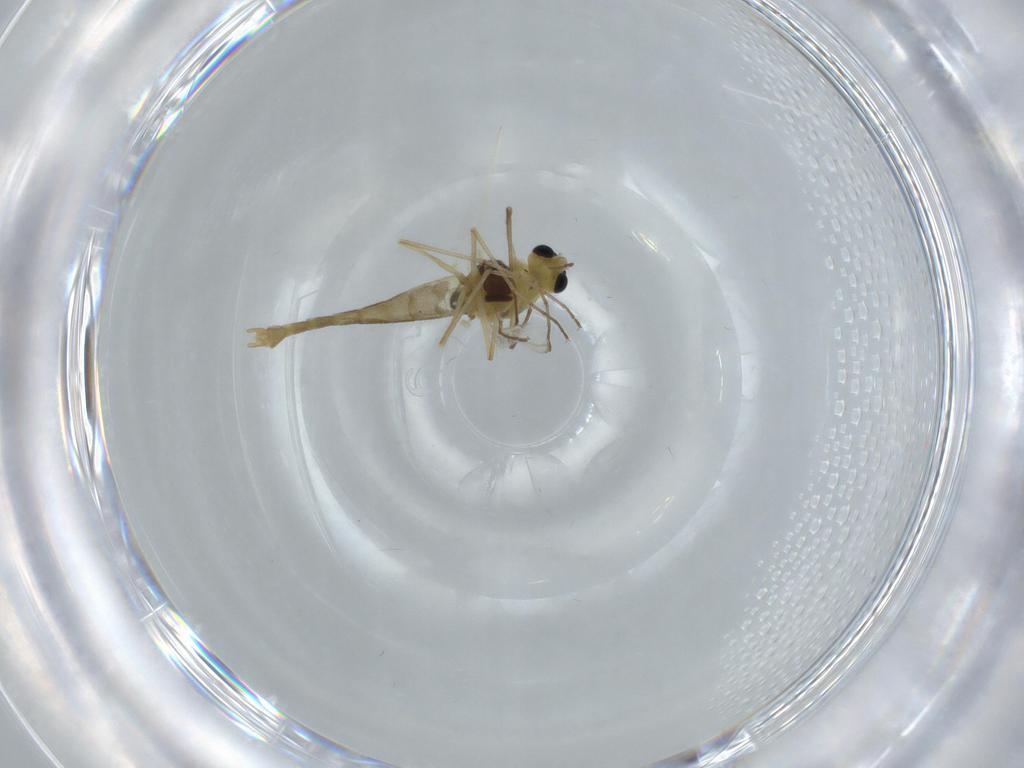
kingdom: Animalia
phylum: Arthropoda
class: Insecta
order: Diptera
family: Chironomidae
